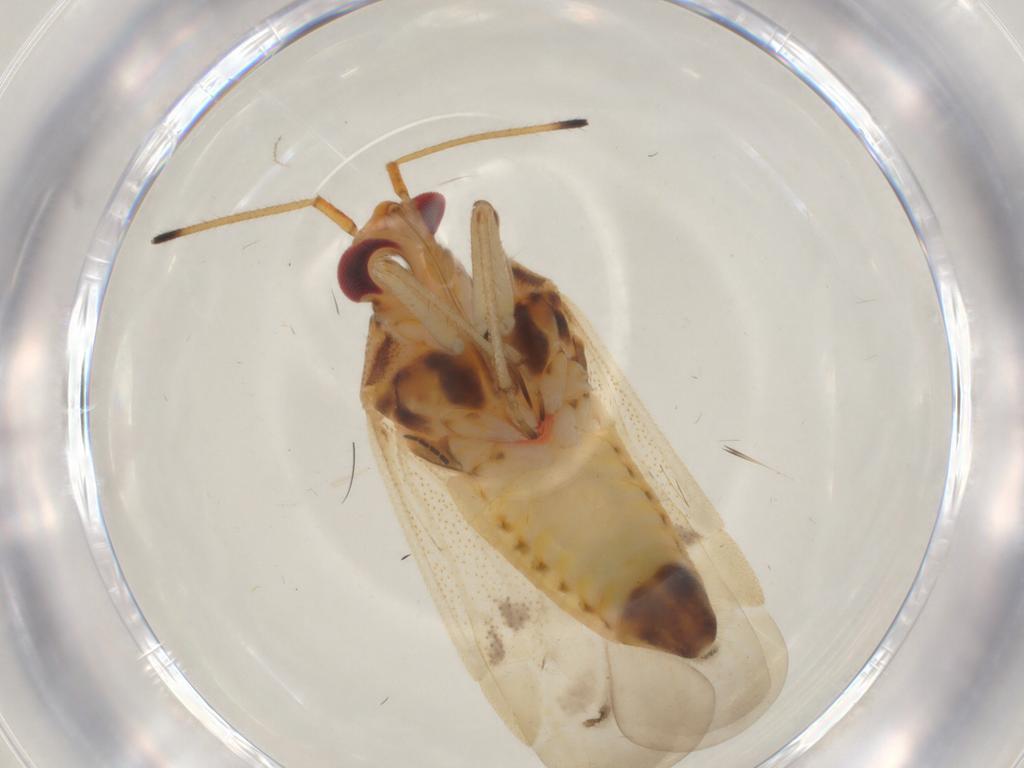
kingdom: Animalia
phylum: Arthropoda
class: Insecta
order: Hemiptera
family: Miridae
